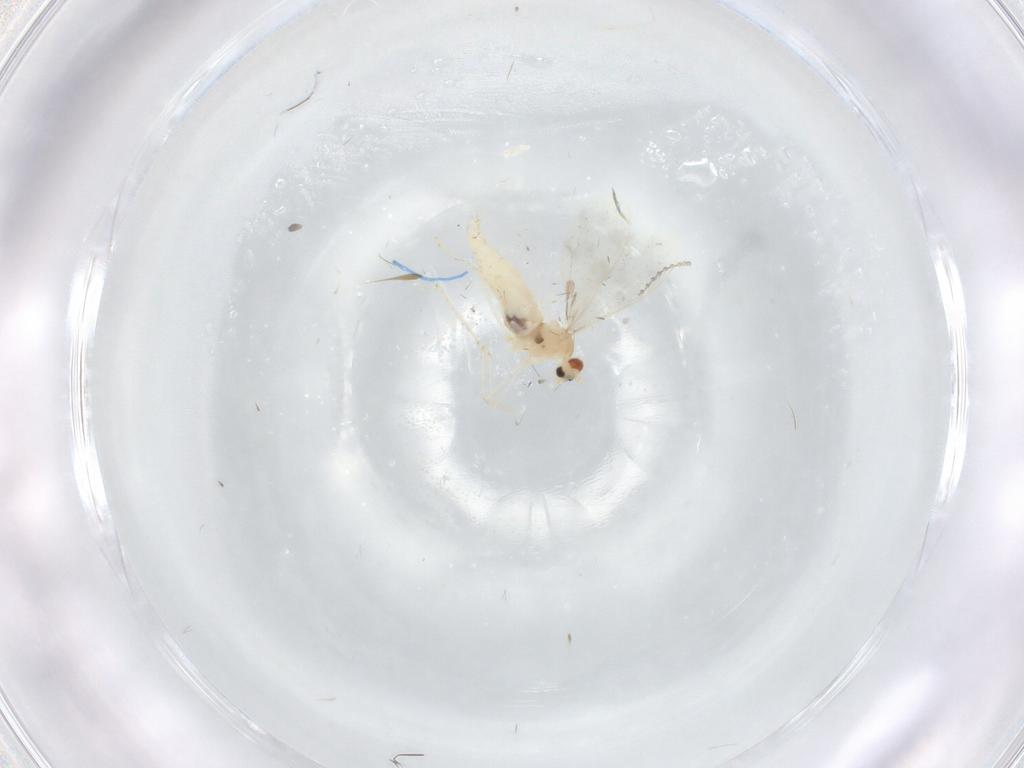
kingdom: Animalia
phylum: Arthropoda
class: Insecta
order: Diptera
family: Cecidomyiidae
